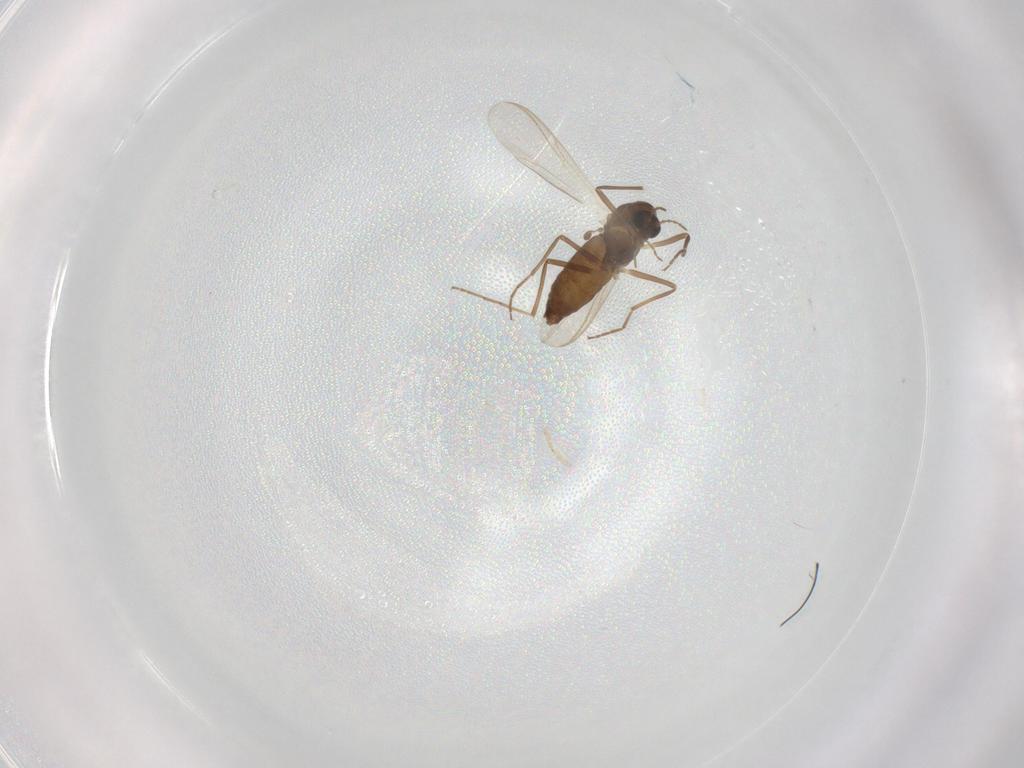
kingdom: Animalia
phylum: Arthropoda
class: Insecta
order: Diptera
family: Chironomidae
